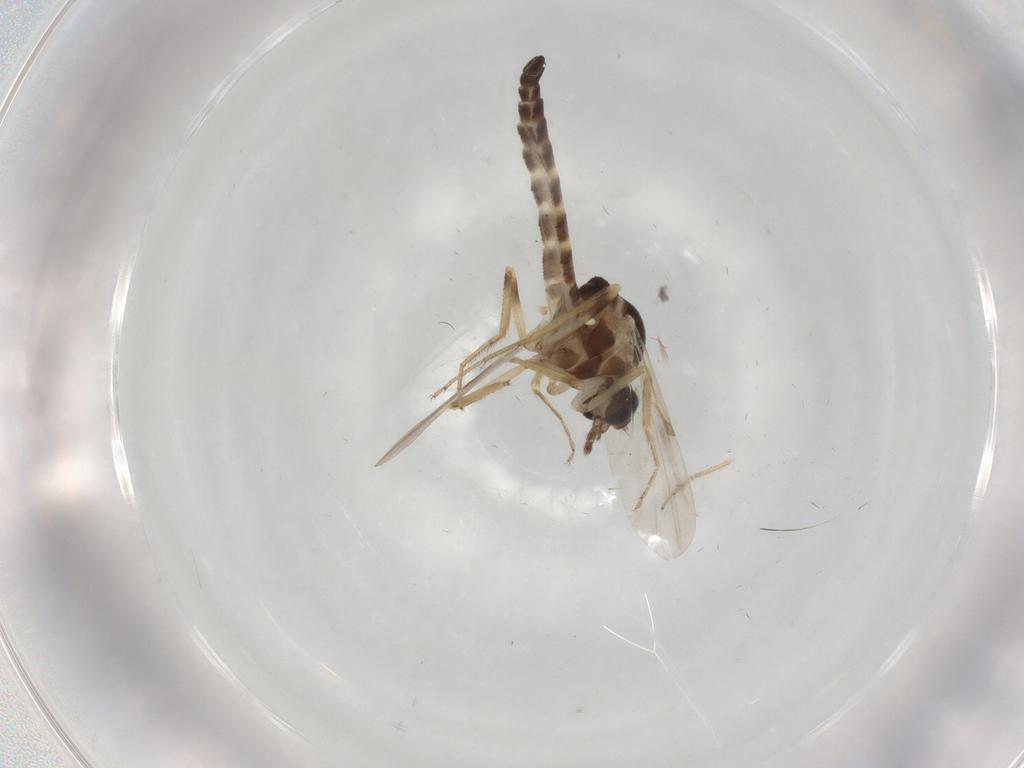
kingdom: Animalia
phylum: Arthropoda
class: Insecta
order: Diptera
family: Ceratopogonidae
